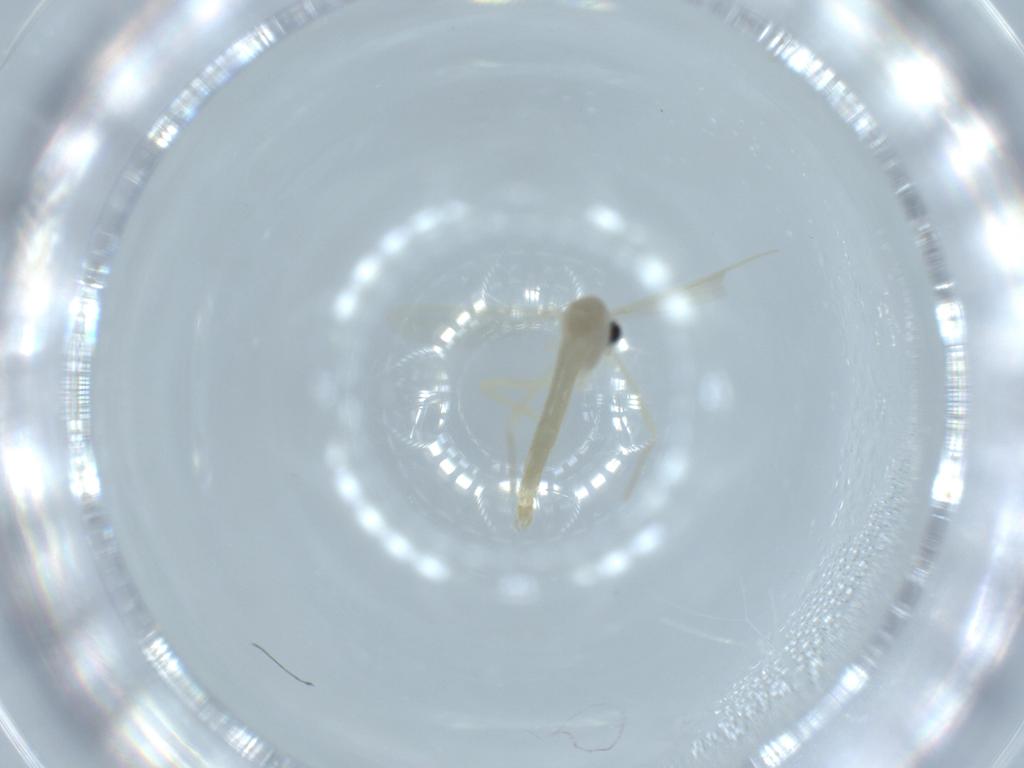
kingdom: Animalia
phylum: Arthropoda
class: Insecta
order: Diptera
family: Chironomidae
